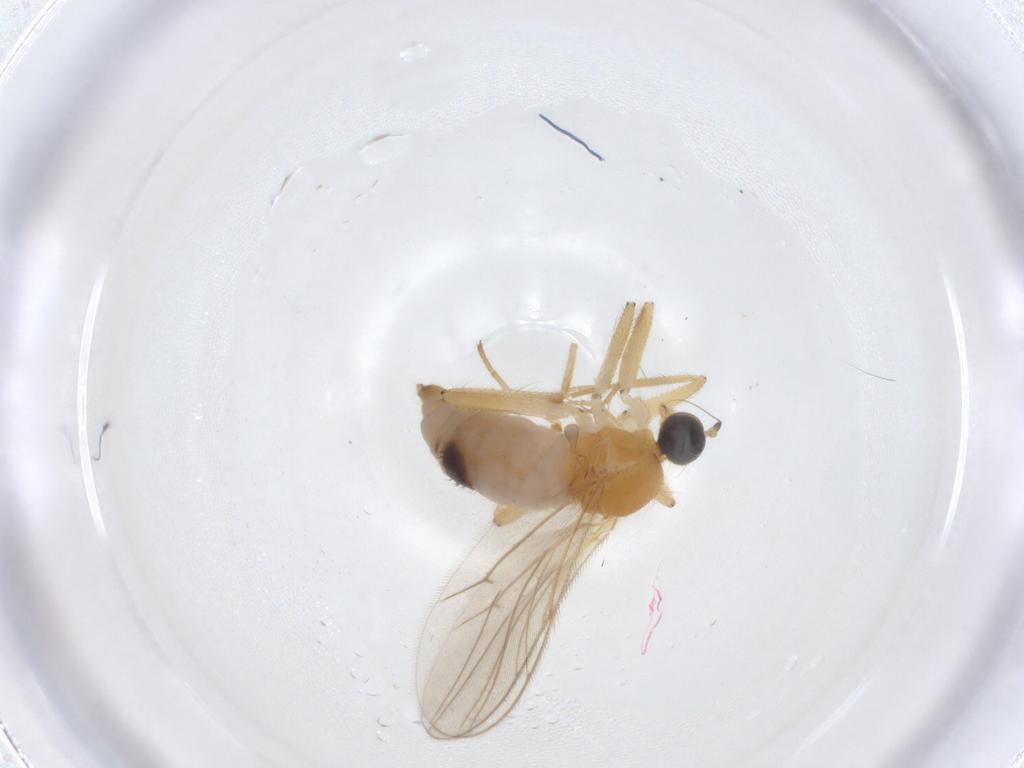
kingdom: Animalia
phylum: Arthropoda
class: Insecta
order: Diptera
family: Hybotidae
